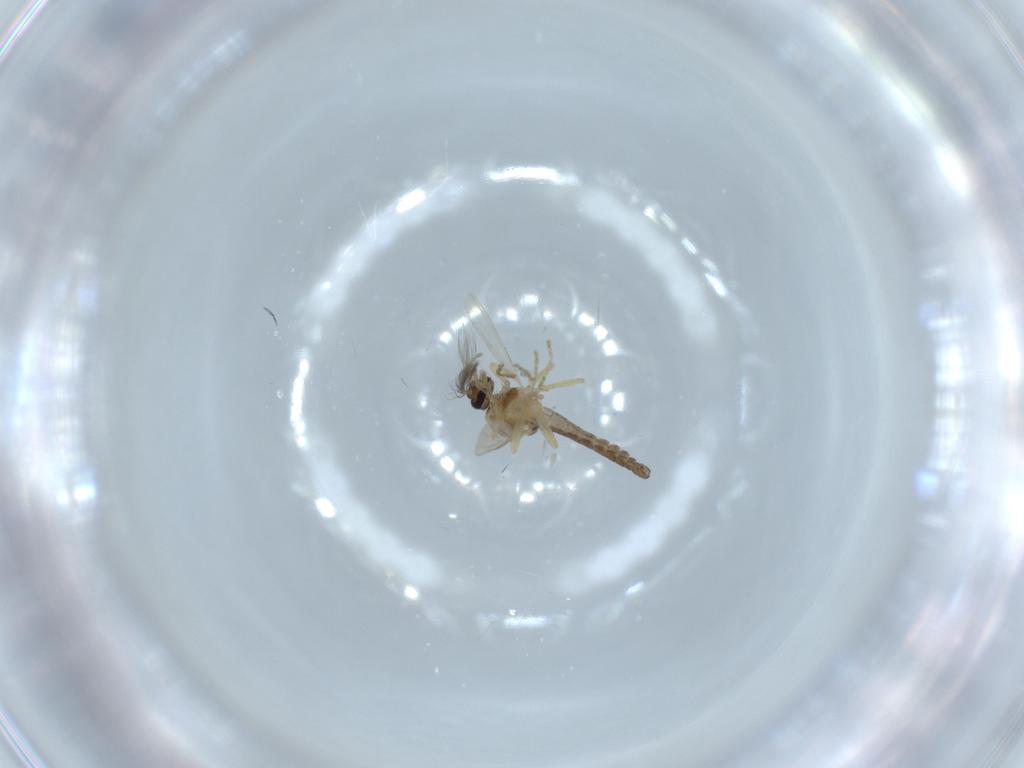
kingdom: Animalia
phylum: Arthropoda
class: Insecta
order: Diptera
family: Ceratopogonidae
